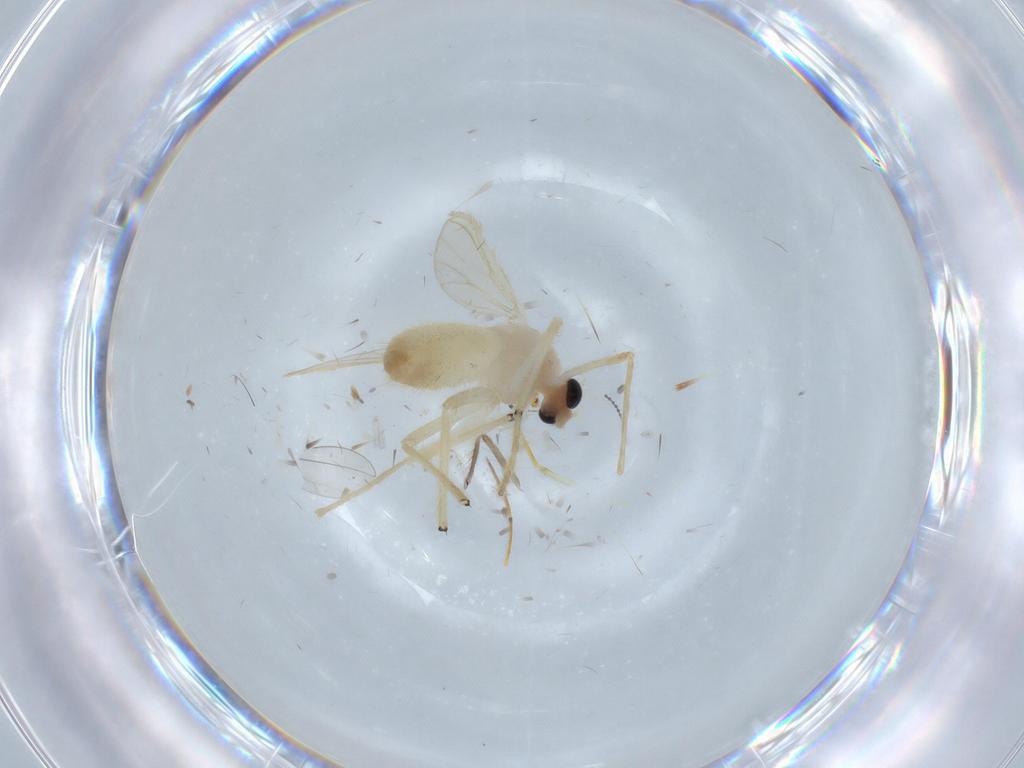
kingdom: Animalia
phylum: Arthropoda
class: Insecta
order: Diptera
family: Chironomidae
